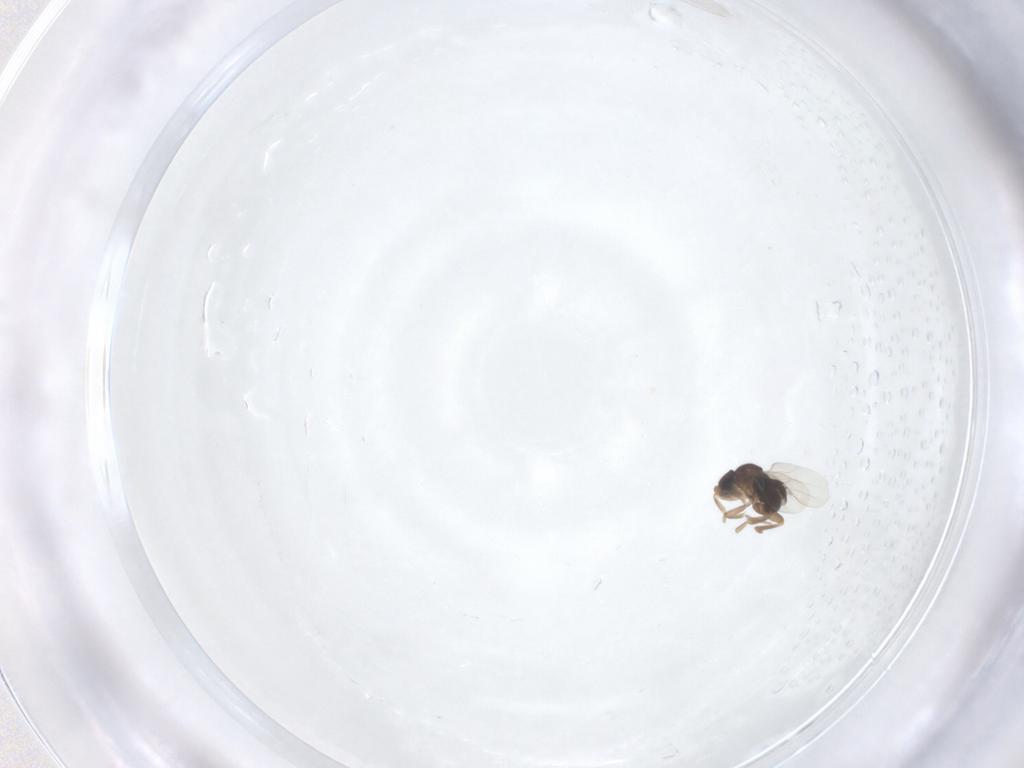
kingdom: Animalia
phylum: Arthropoda
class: Insecta
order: Diptera
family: Phoridae
